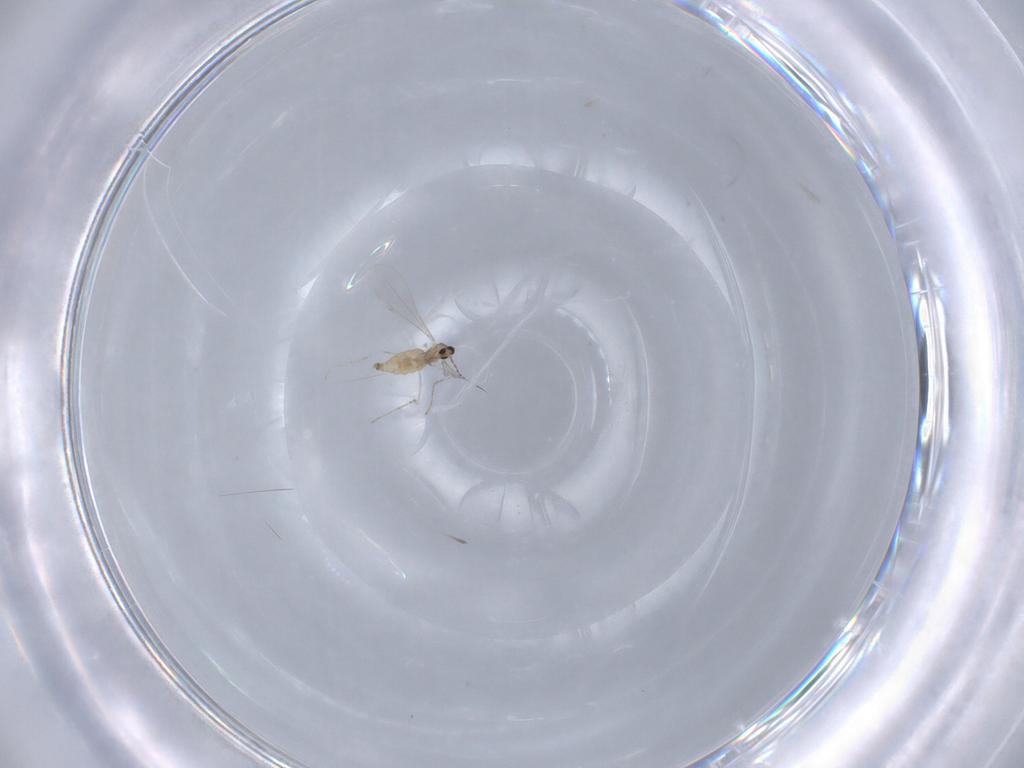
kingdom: Animalia
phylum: Arthropoda
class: Insecta
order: Diptera
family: Cecidomyiidae
